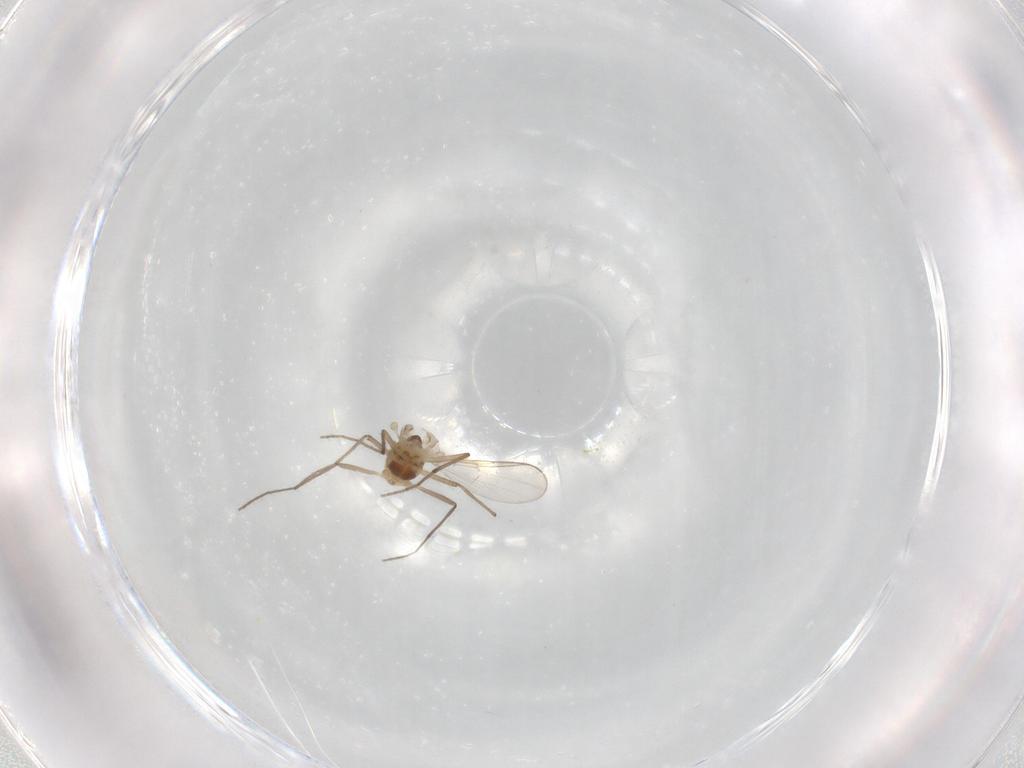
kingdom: Animalia
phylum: Arthropoda
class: Insecta
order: Diptera
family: Chironomidae
